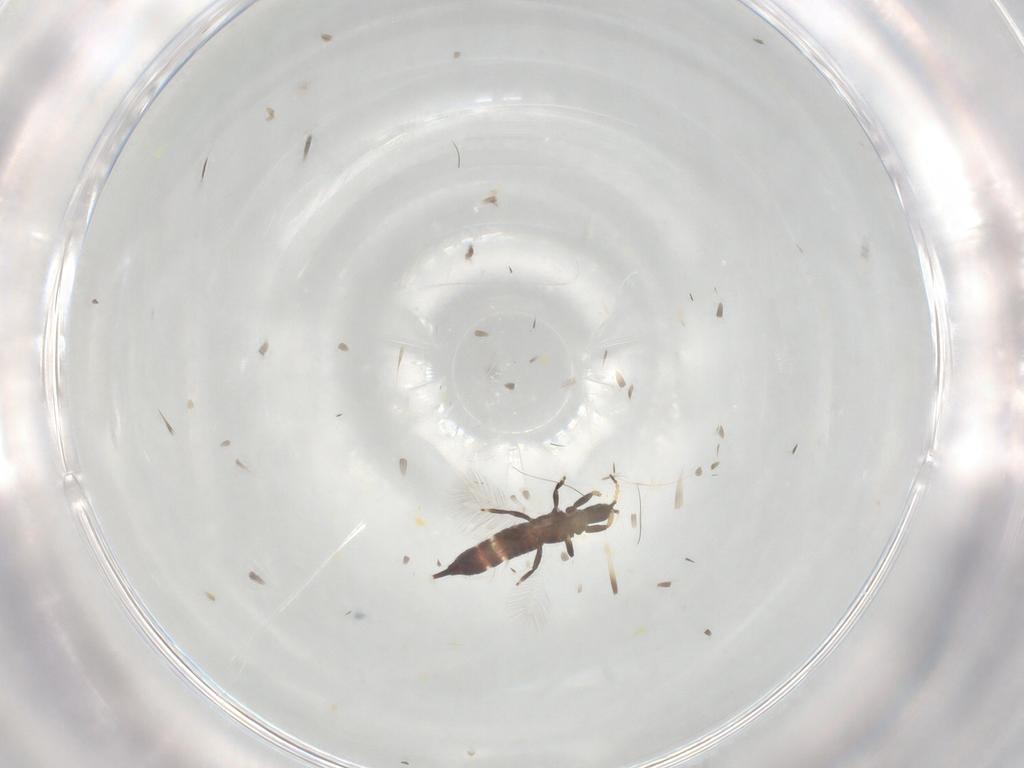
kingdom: Animalia
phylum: Arthropoda
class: Insecta
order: Thysanoptera
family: Phlaeothripidae
